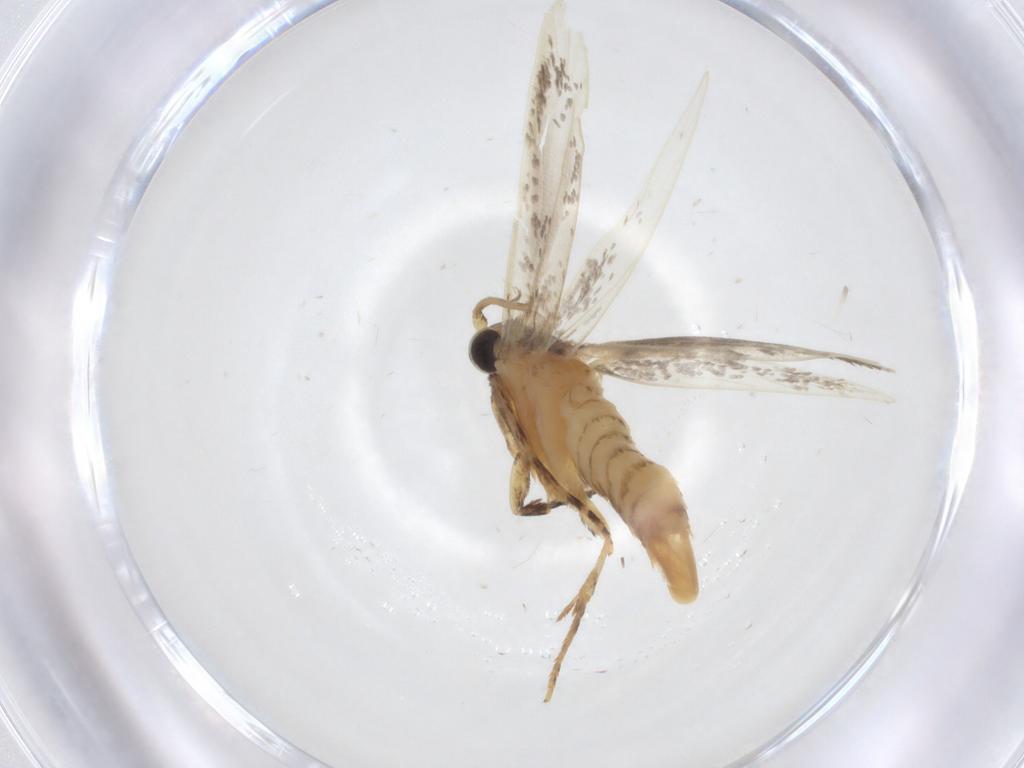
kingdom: Animalia
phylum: Arthropoda
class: Insecta
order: Lepidoptera
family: Tineidae
